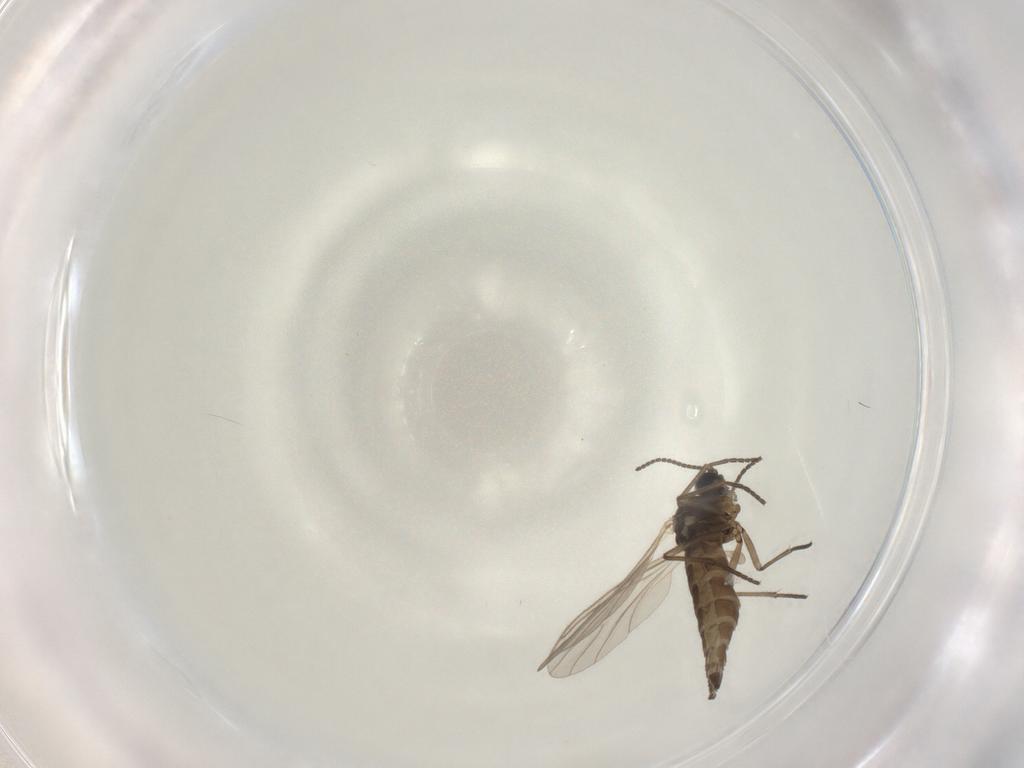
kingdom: Animalia
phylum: Arthropoda
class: Insecta
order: Diptera
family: Sciaridae
